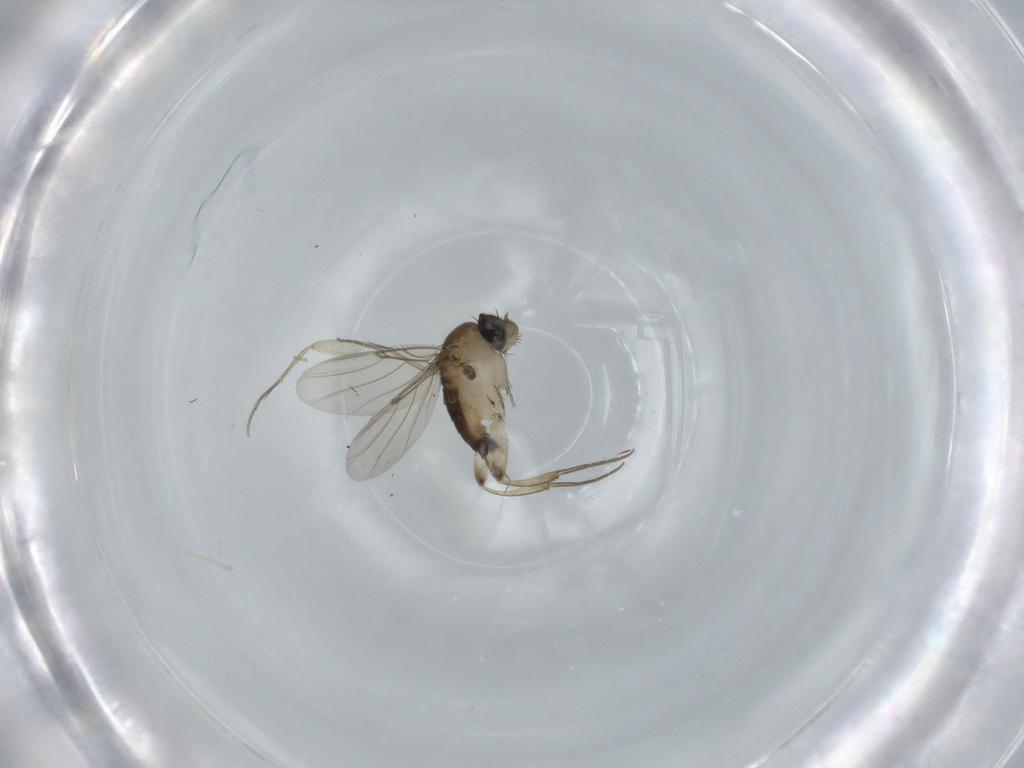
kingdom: Animalia
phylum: Arthropoda
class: Insecta
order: Diptera
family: Phoridae
